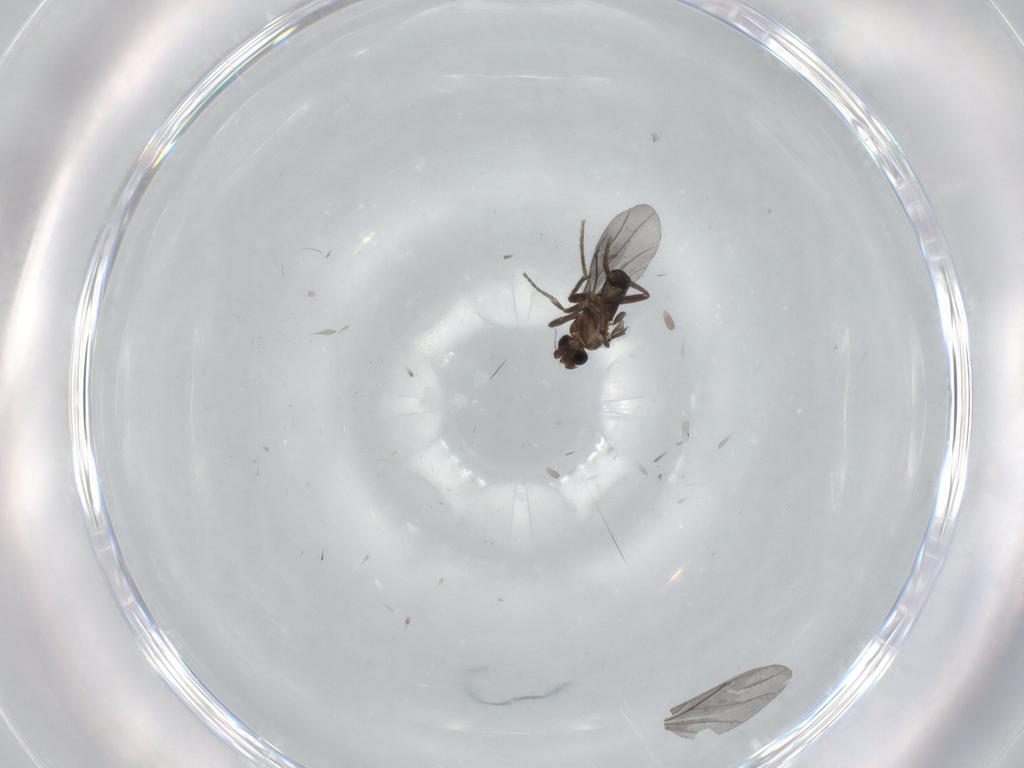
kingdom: Animalia
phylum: Arthropoda
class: Insecta
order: Diptera
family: Phoridae
